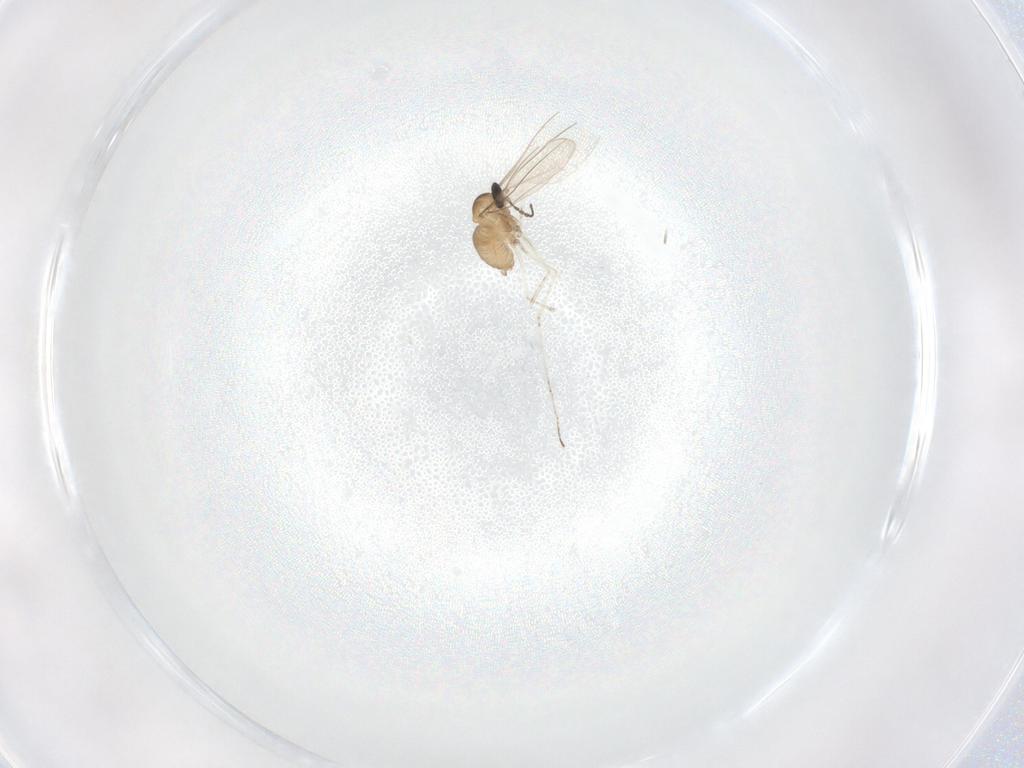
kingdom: Animalia
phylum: Arthropoda
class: Insecta
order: Diptera
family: Cecidomyiidae
